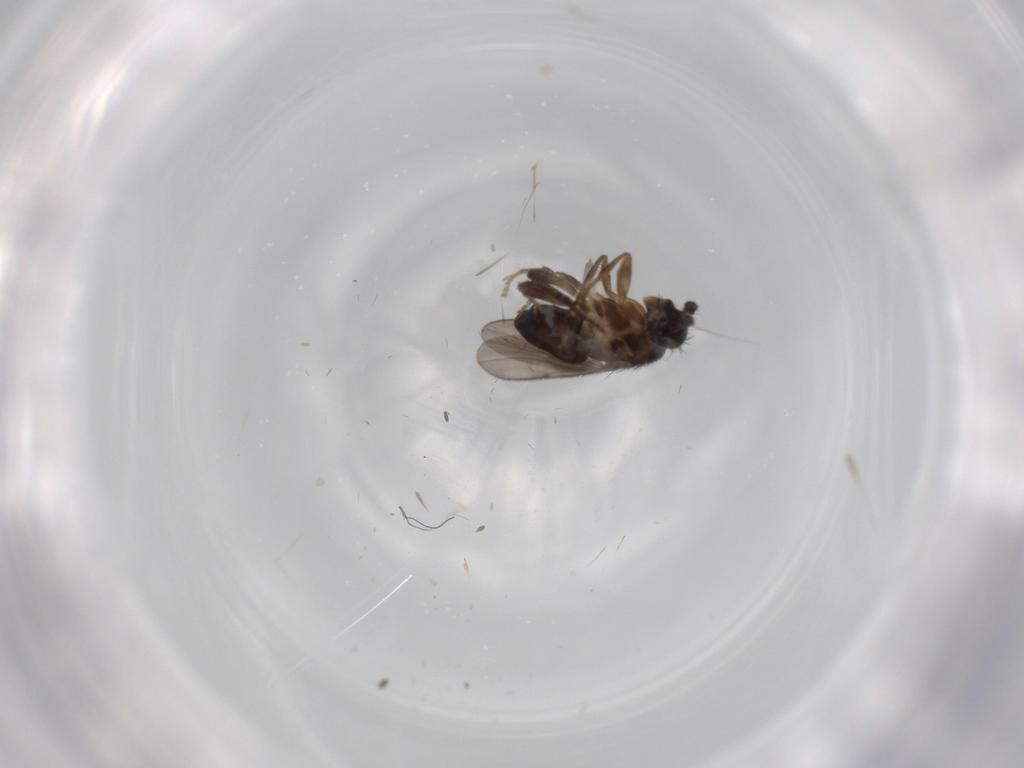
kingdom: Animalia
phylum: Arthropoda
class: Insecta
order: Diptera
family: Sphaeroceridae
